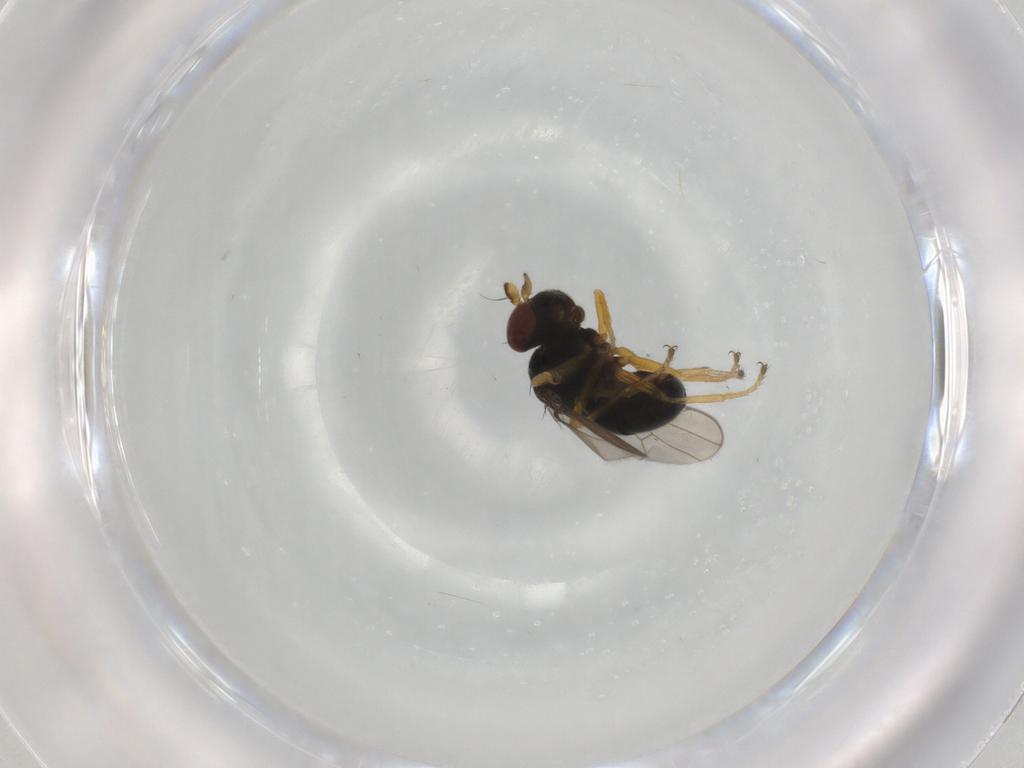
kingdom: Animalia
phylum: Arthropoda
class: Insecta
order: Diptera
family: Ephydridae
